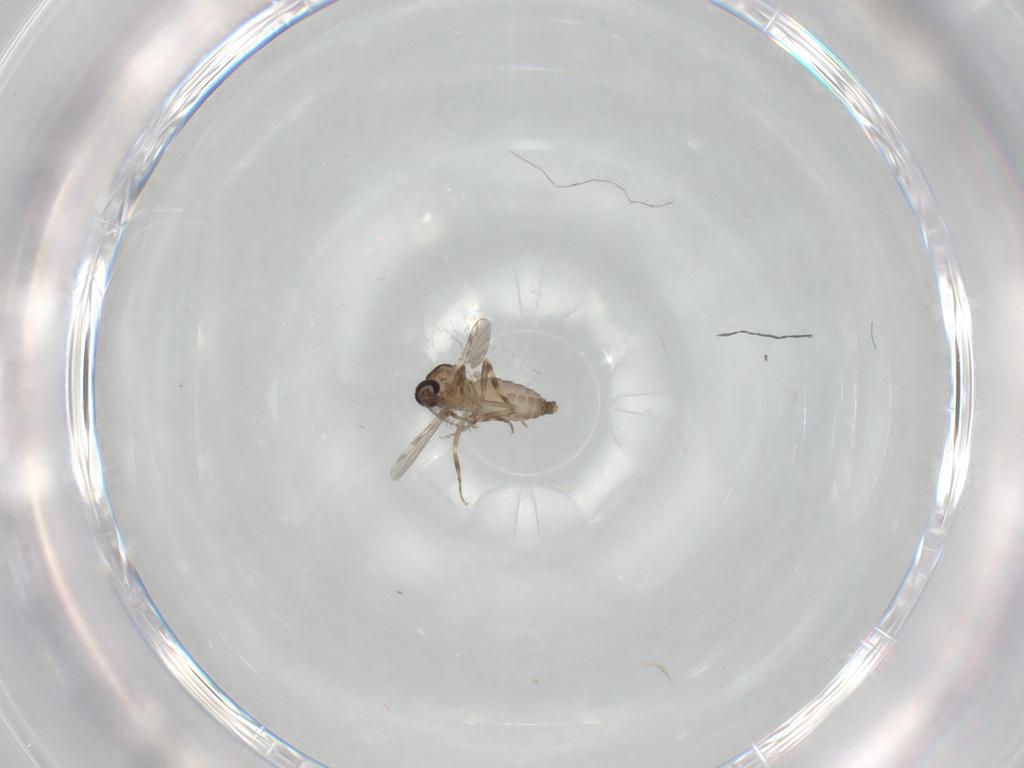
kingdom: Animalia
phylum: Arthropoda
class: Insecta
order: Diptera
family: Ceratopogonidae
